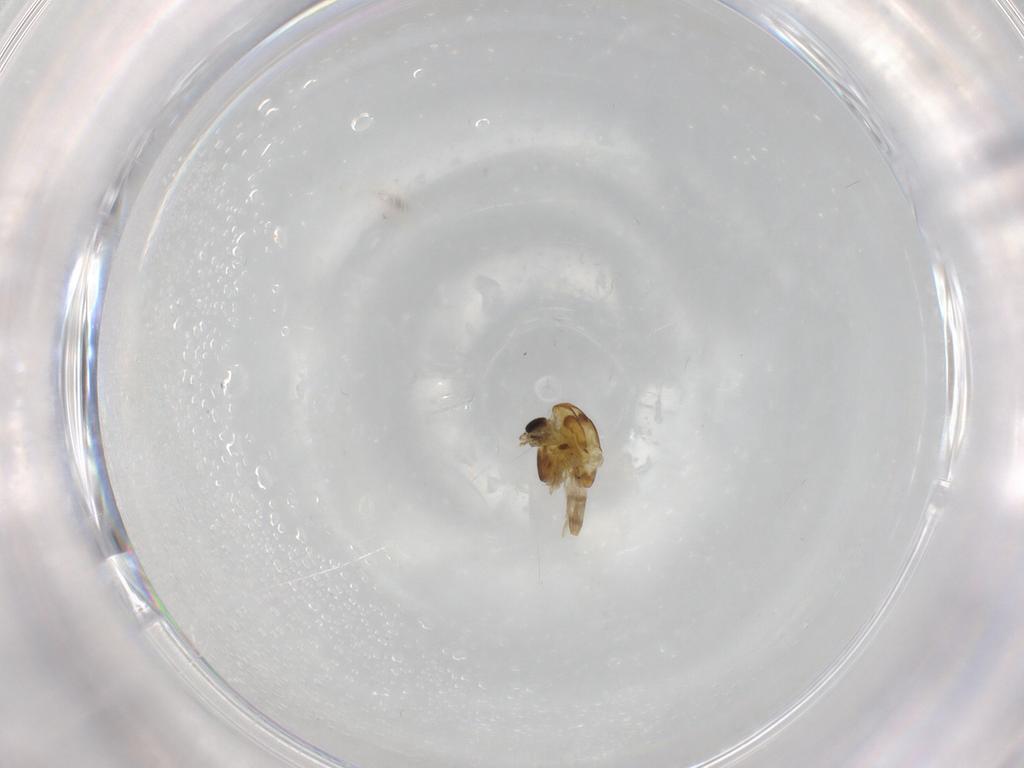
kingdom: Animalia
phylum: Arthropoda
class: Insecta
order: Diptera
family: Chironomidae
